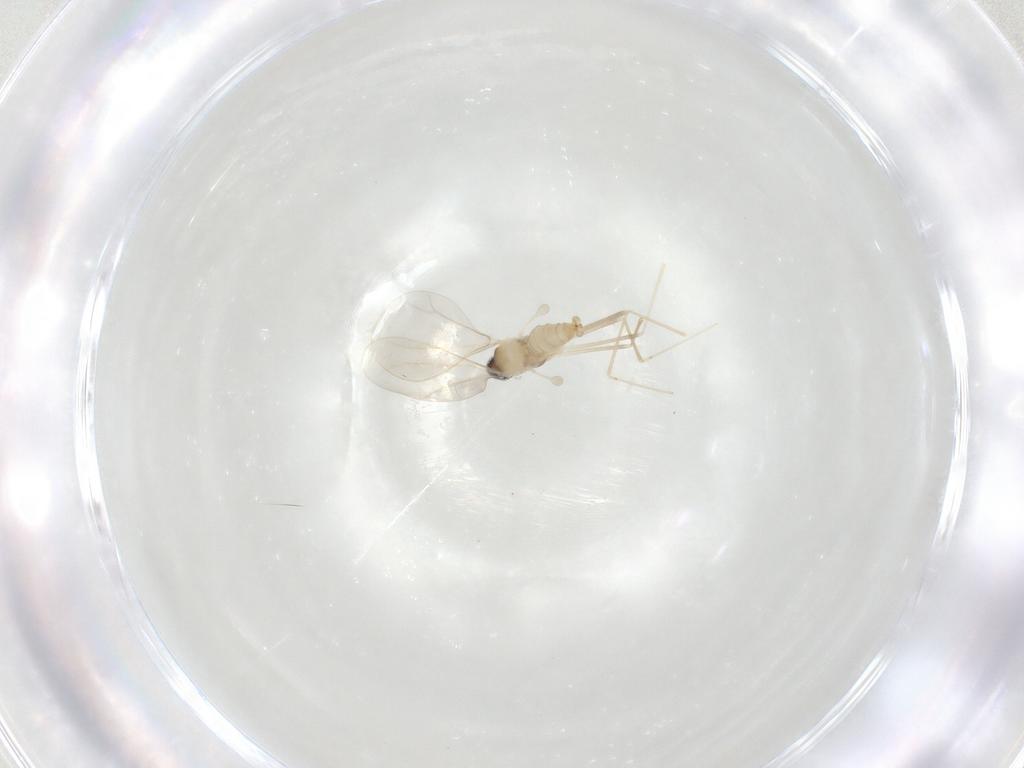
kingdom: Animalia
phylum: Arthropoda
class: Insecta
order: Diptera
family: Cecidomyiidae
